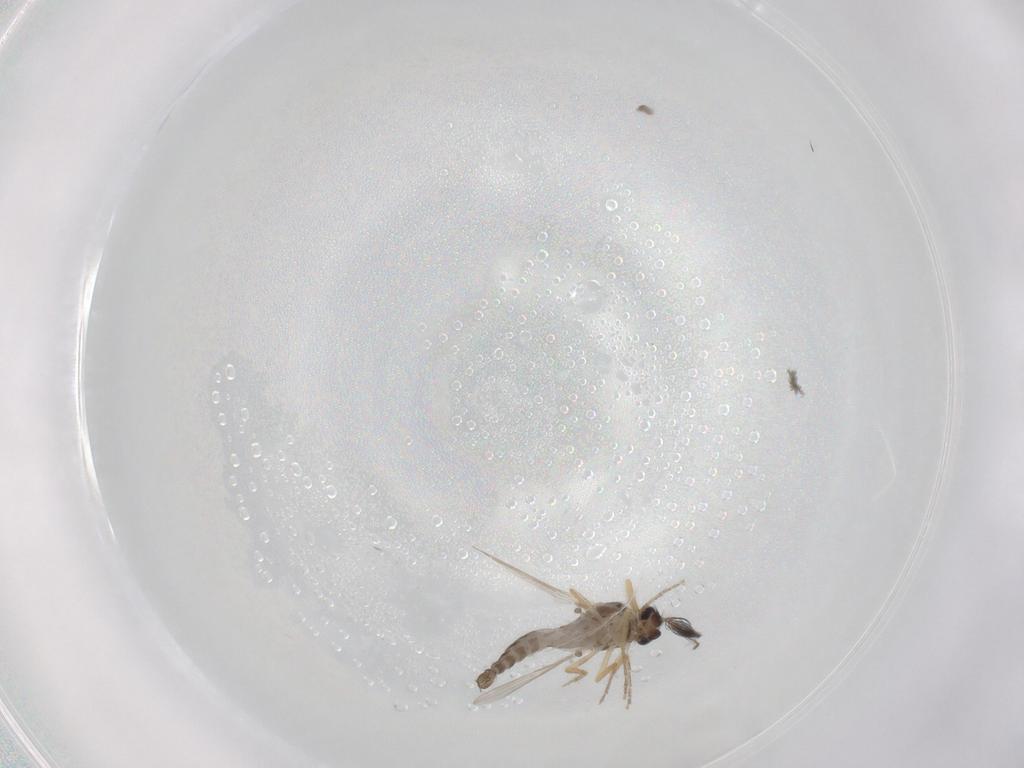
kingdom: Animalia
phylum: Arthropoda
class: Insecta
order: Diptera
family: Ceratopogonidae
